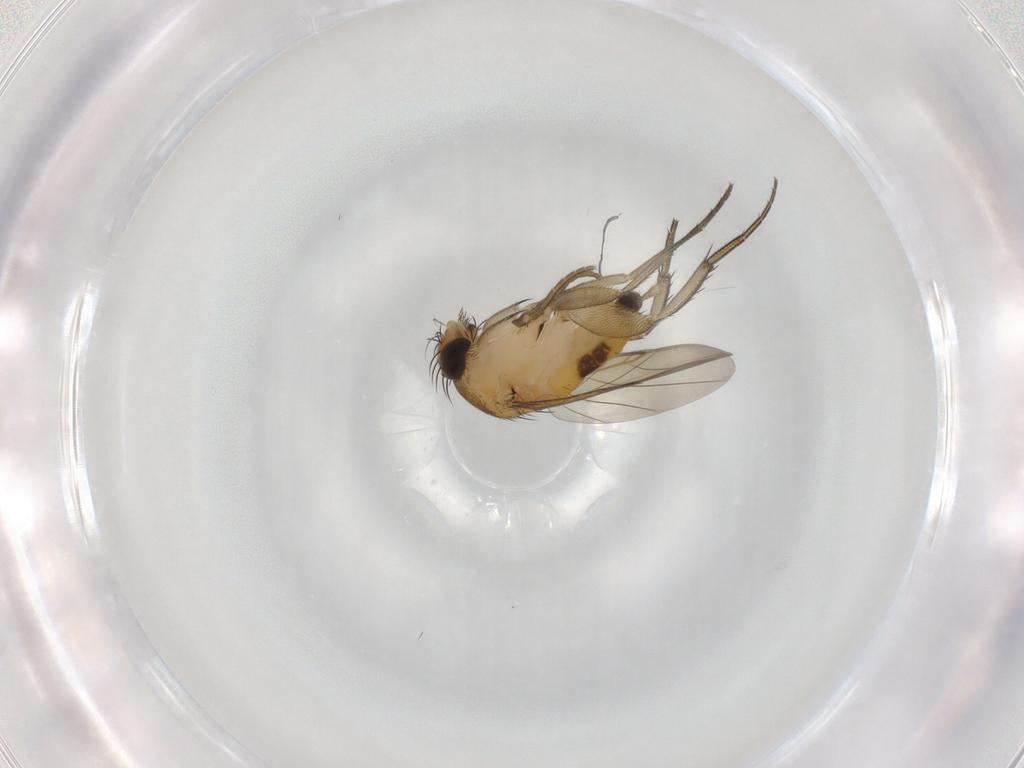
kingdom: Animalia
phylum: Arthropoda
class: Insecta
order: Diptera
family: Phoridae
